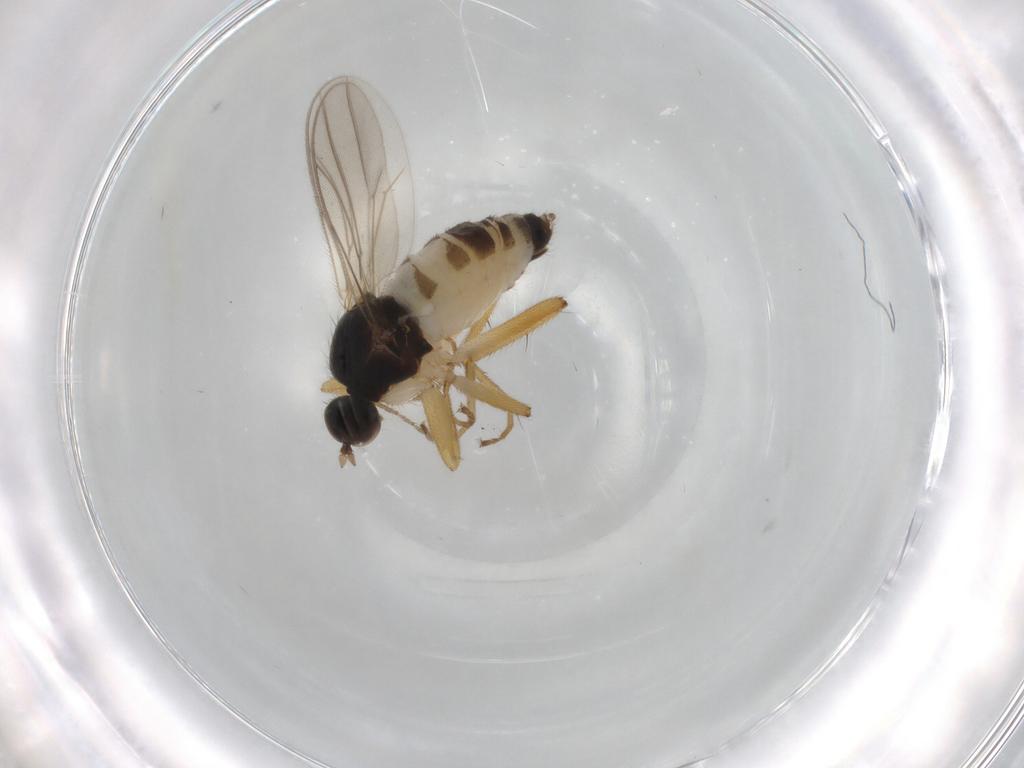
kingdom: Animalia
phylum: Arthropoda
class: Insecta
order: Diptera
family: Hybotidae
